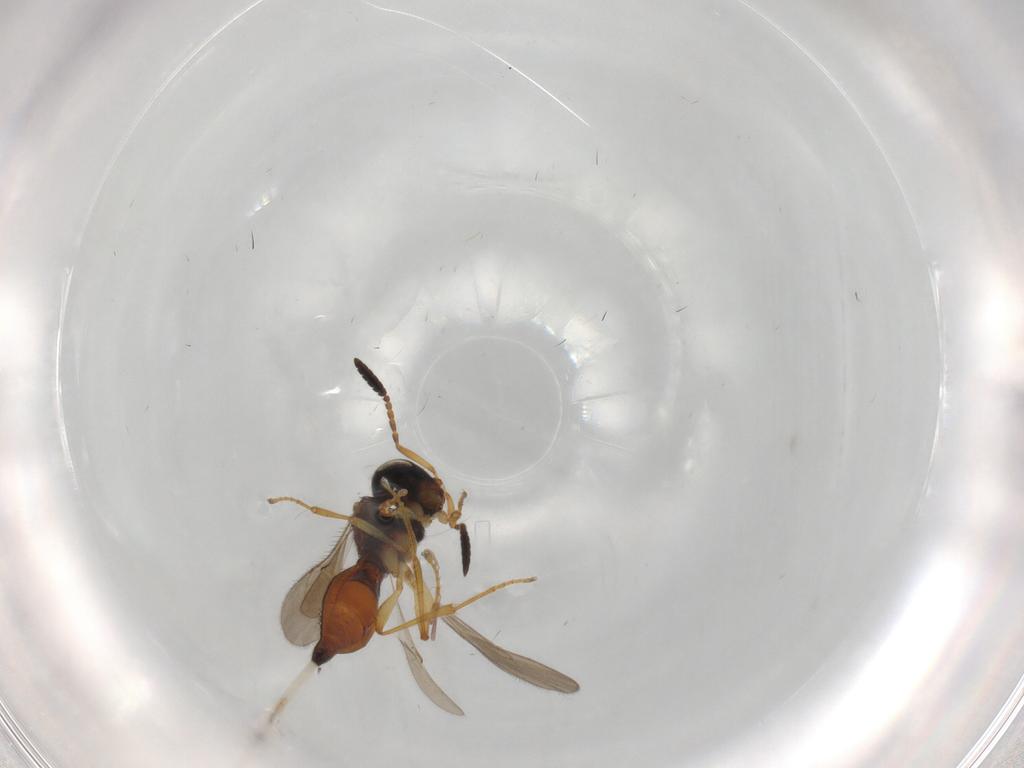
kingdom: Animalia
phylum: Arthropoda
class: Insecta
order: Hymenoptera
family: Scelionidae
